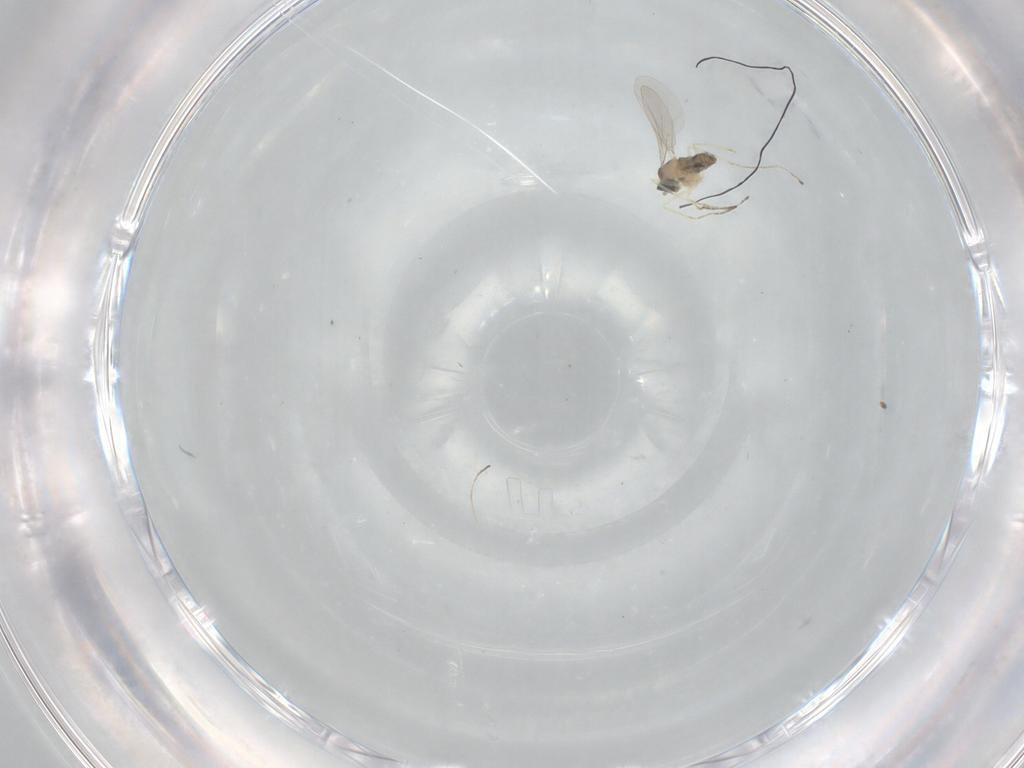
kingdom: Animalia
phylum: Arthropoda
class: Insecta
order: Diptera
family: Cecidomyiidae
